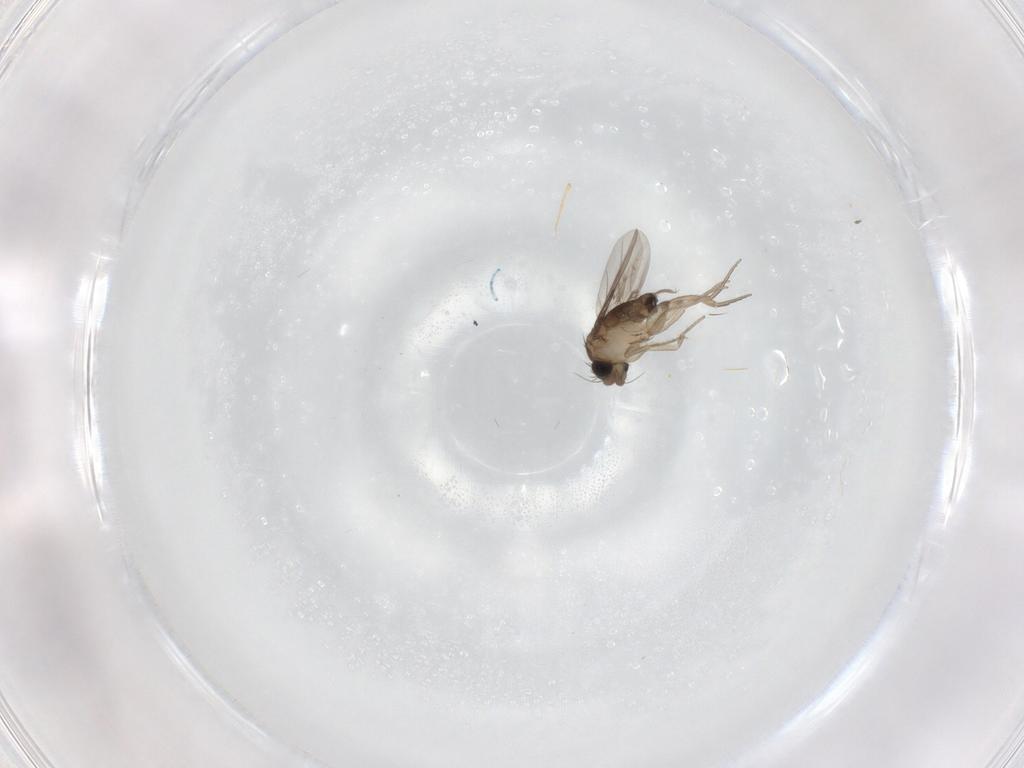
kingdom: Animalia
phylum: Arthropoda
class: Insecta
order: Diptera
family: Phoridae
